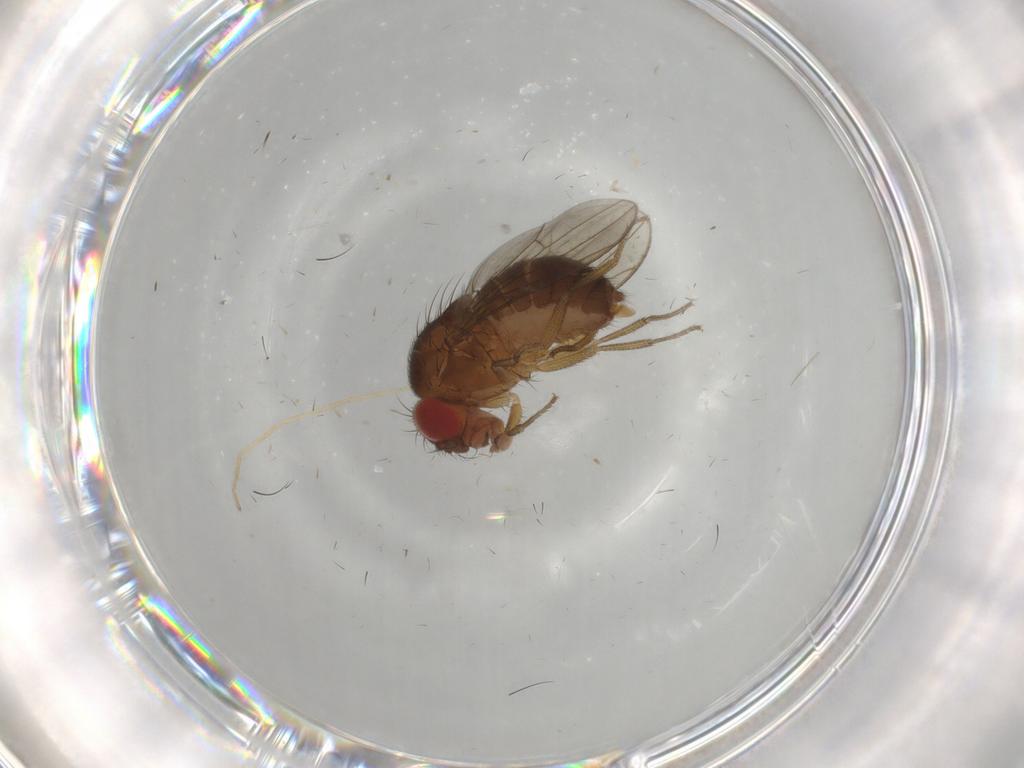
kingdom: Animalia
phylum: Arthropoda
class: Insecta
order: Diptera
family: Drosophilidae
